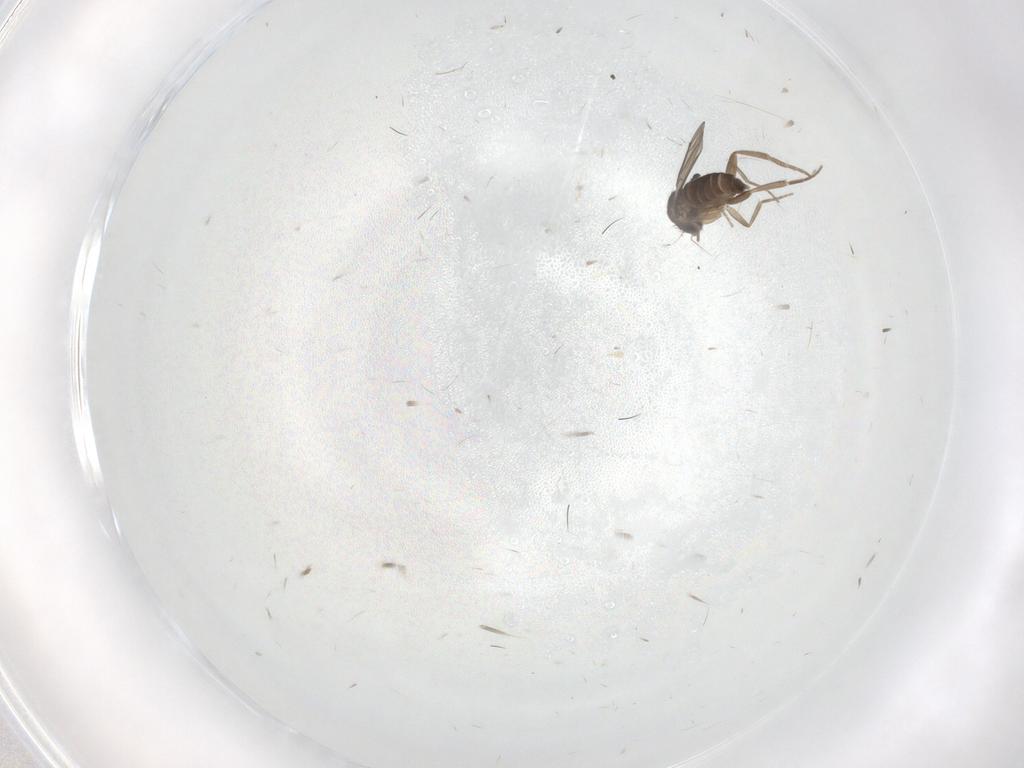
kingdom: Animalia
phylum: Arthropoda
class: Insecta
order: Diptera
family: Phoridae
